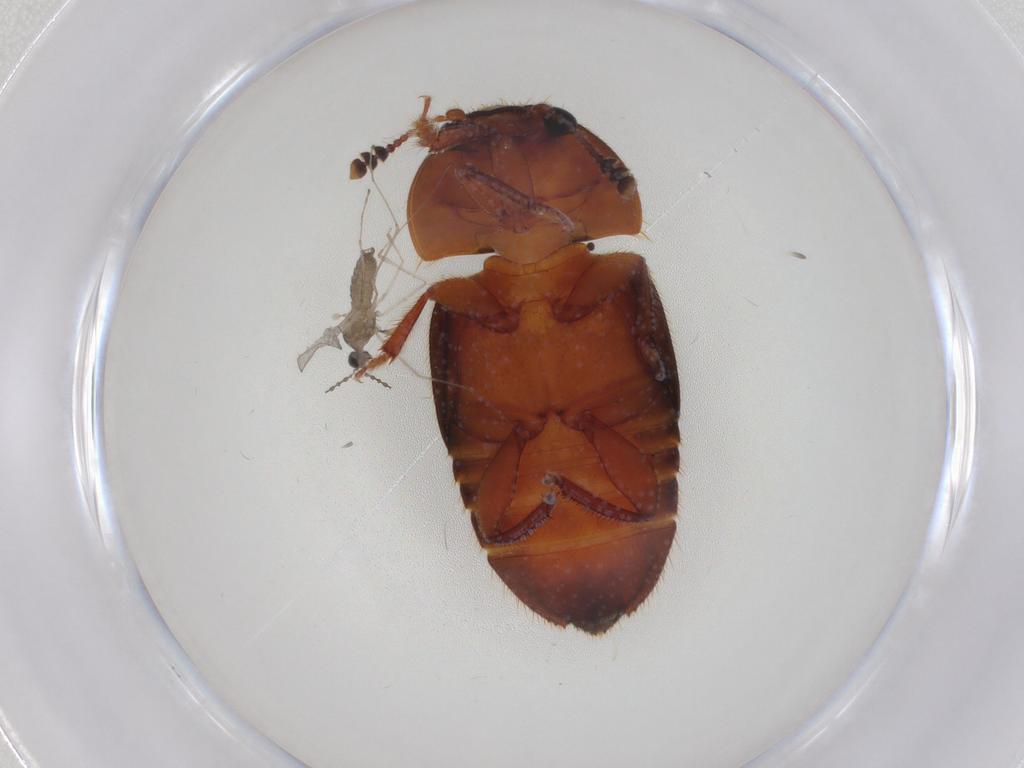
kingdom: Animalia
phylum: Arthropoda
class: Insecta
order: Coleoptera
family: Nitidulidae
